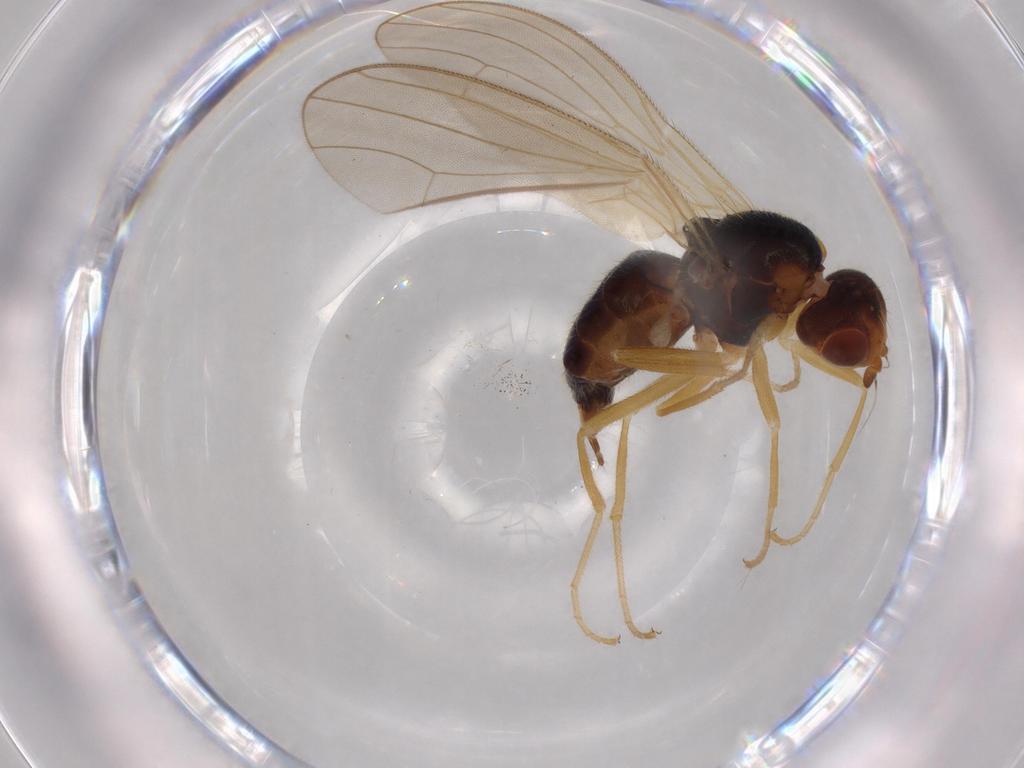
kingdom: Animalia
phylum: Arthropoda
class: Insecta
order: Diptera
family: Psilidae
